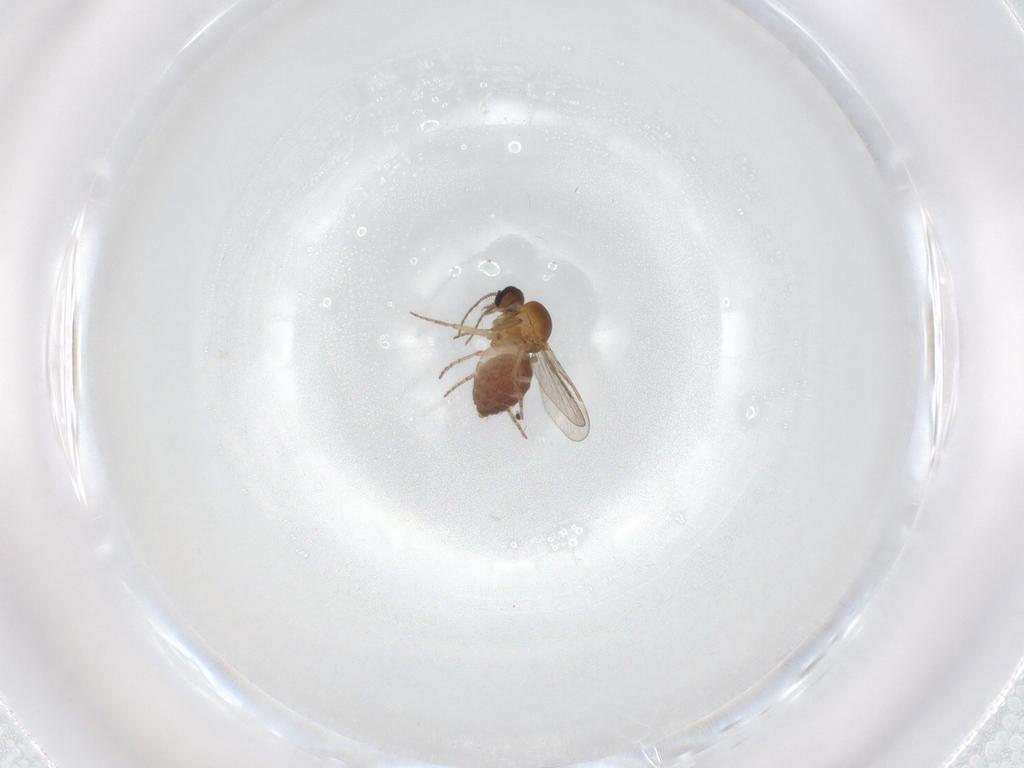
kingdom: Animalia
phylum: Arthropoda
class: Insecta
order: Diptera
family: Ceratopogonidae
